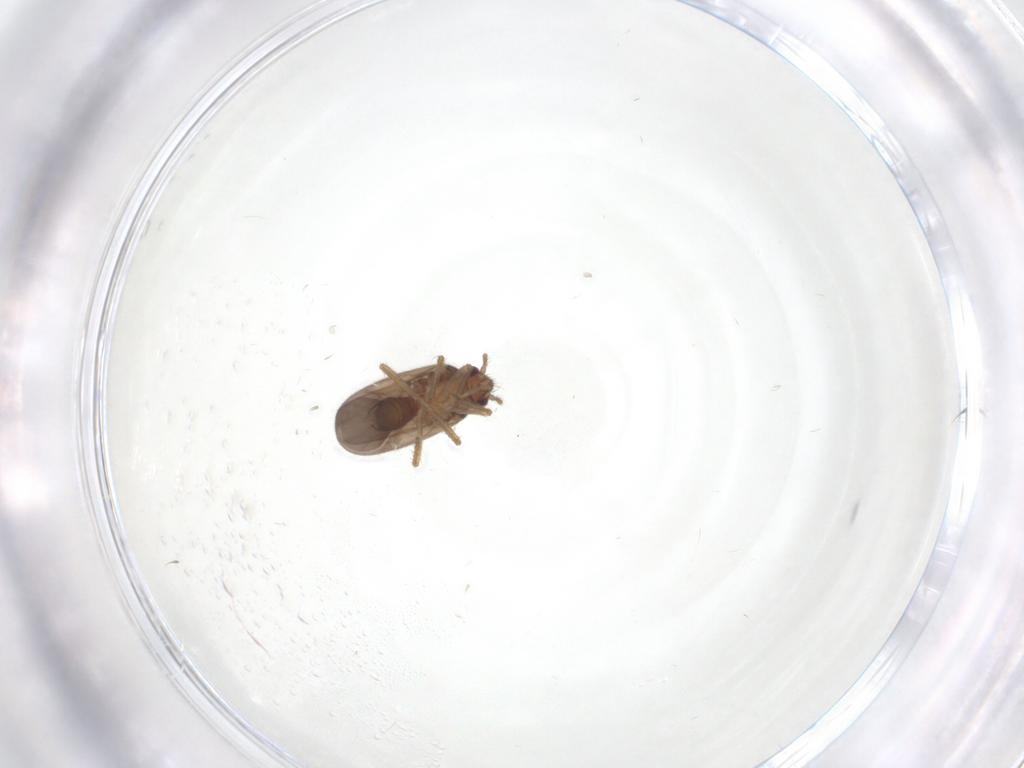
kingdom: Animalia
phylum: Arthropoda
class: Insecta
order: Hemiptera
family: Ceratocombidae
